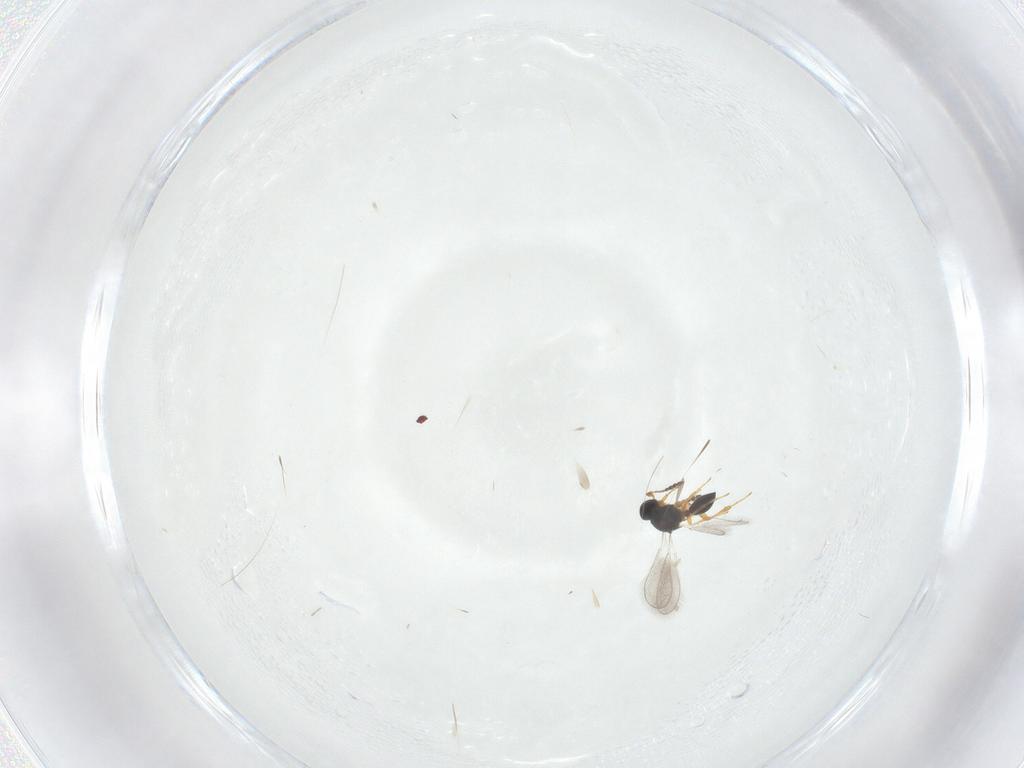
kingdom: Animalia
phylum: Arthropoda
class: Insecta
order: Hymenoptera
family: Platygastridae
